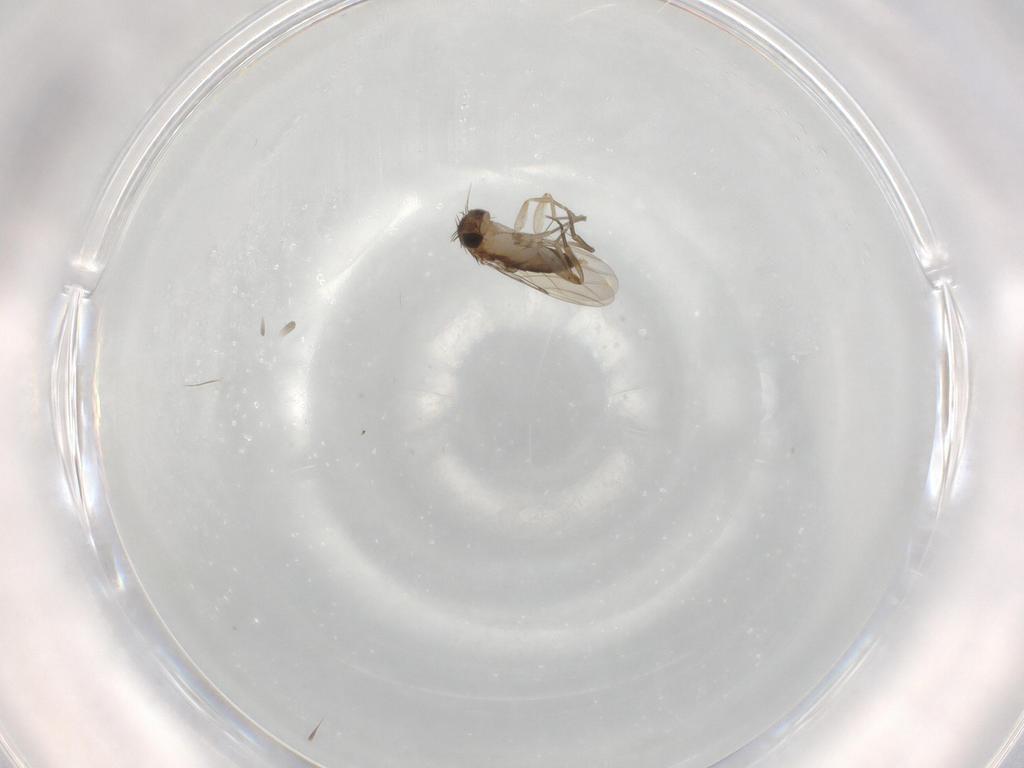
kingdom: Animalia
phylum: Arthropoda
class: Insecta
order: Diptera
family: Phoridae
